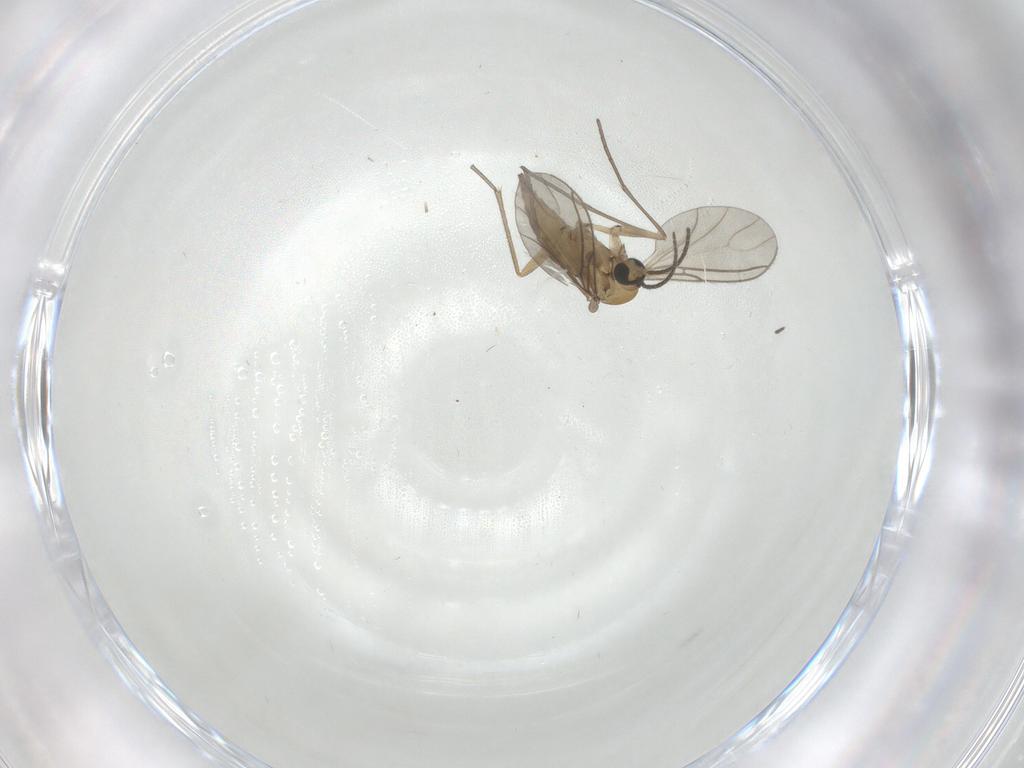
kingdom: Animalia
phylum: Arthropoda
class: Insecta
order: Diptera
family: Sciaridae
